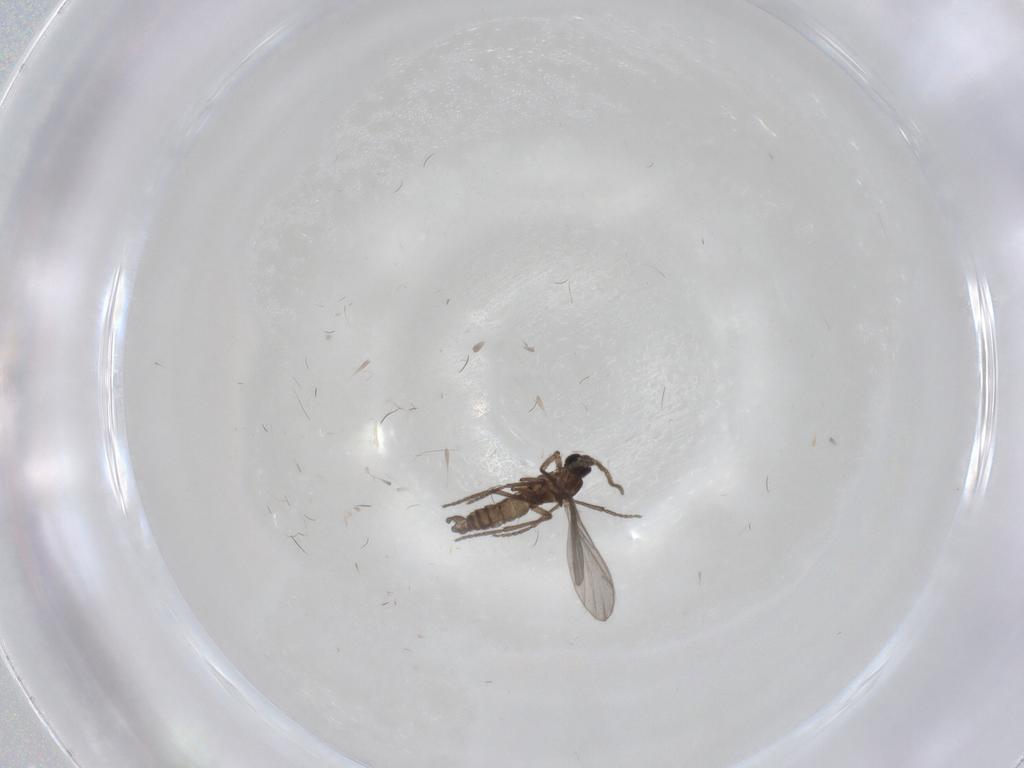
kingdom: Animalia
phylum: Arthropoda
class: Insecta
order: Diptera
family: Sciaridae
